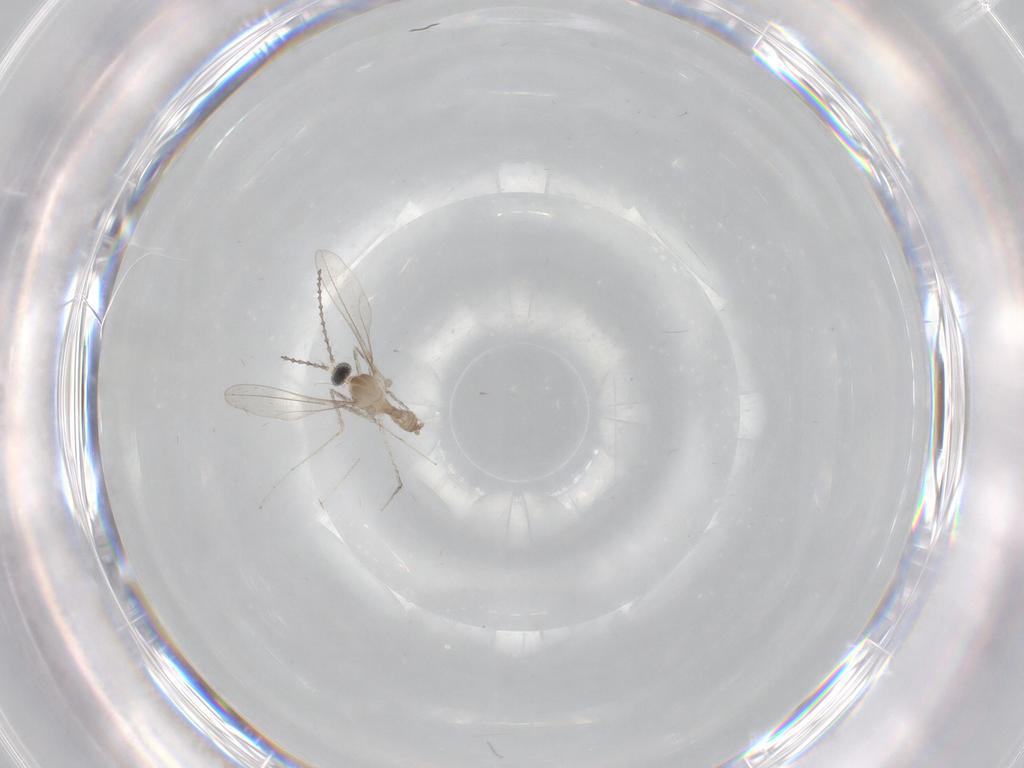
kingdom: Animalia
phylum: Arthropoda
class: Insecta
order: Diptera
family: Cecidomyiidae
